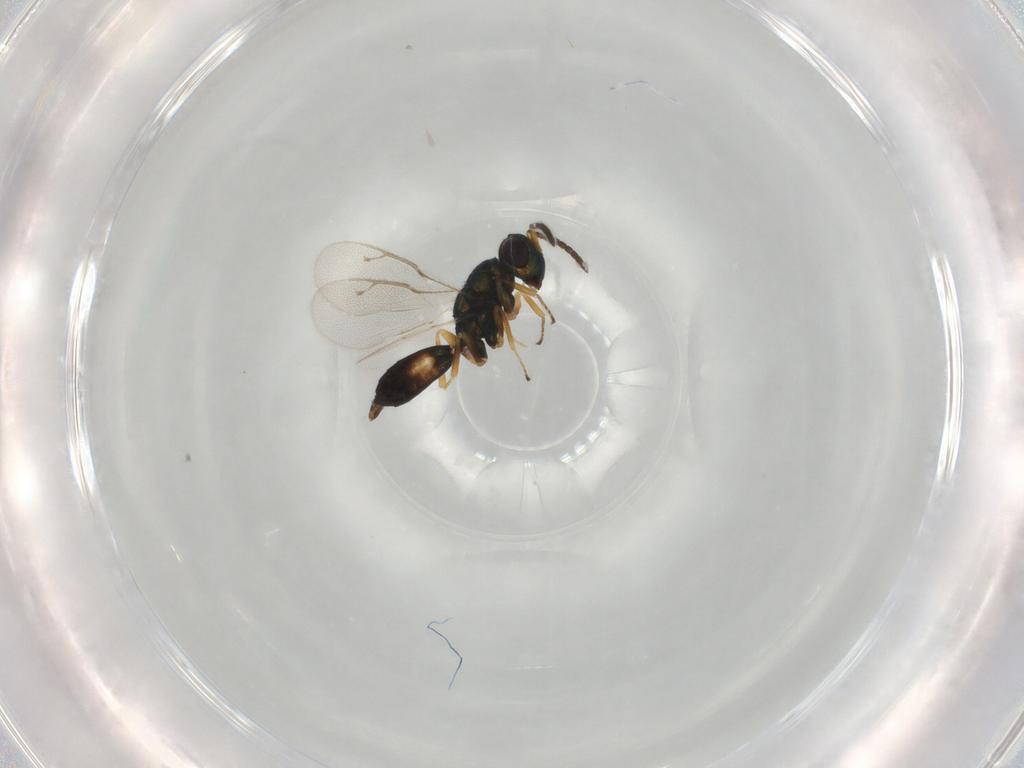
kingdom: Animalia
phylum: Arthropoda
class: Insecta
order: Hymenoptera
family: Pteromalidae
